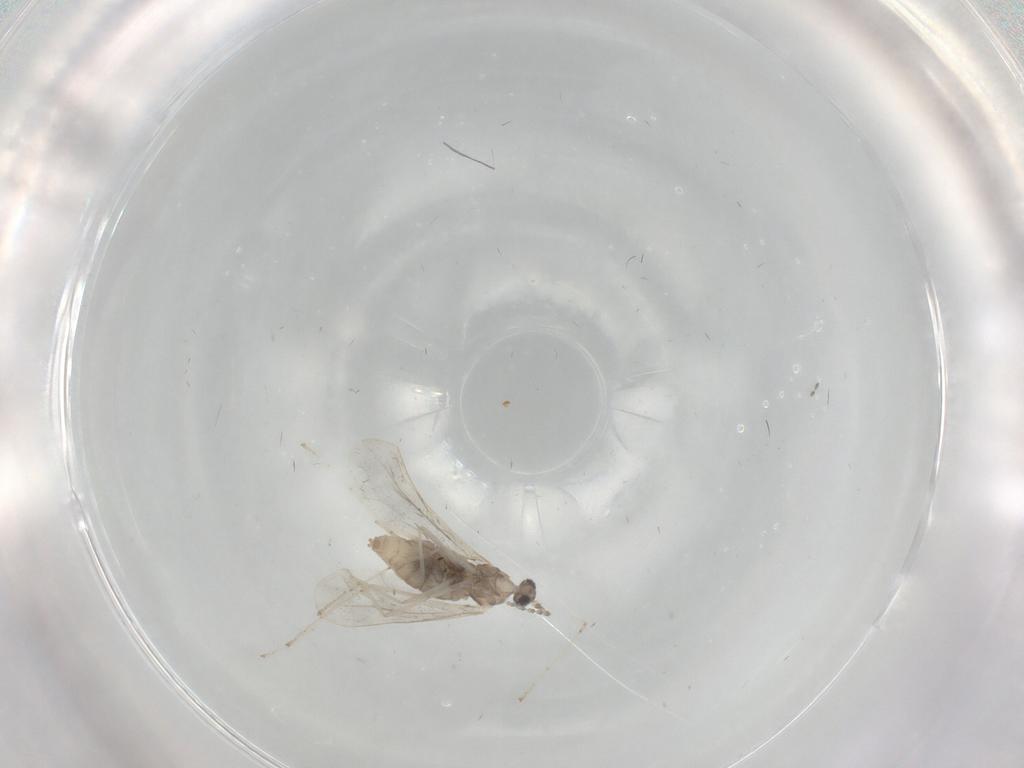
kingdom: Animalia
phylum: Arthropoda
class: Insecta
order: Diptera
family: Cecidomyiidae
